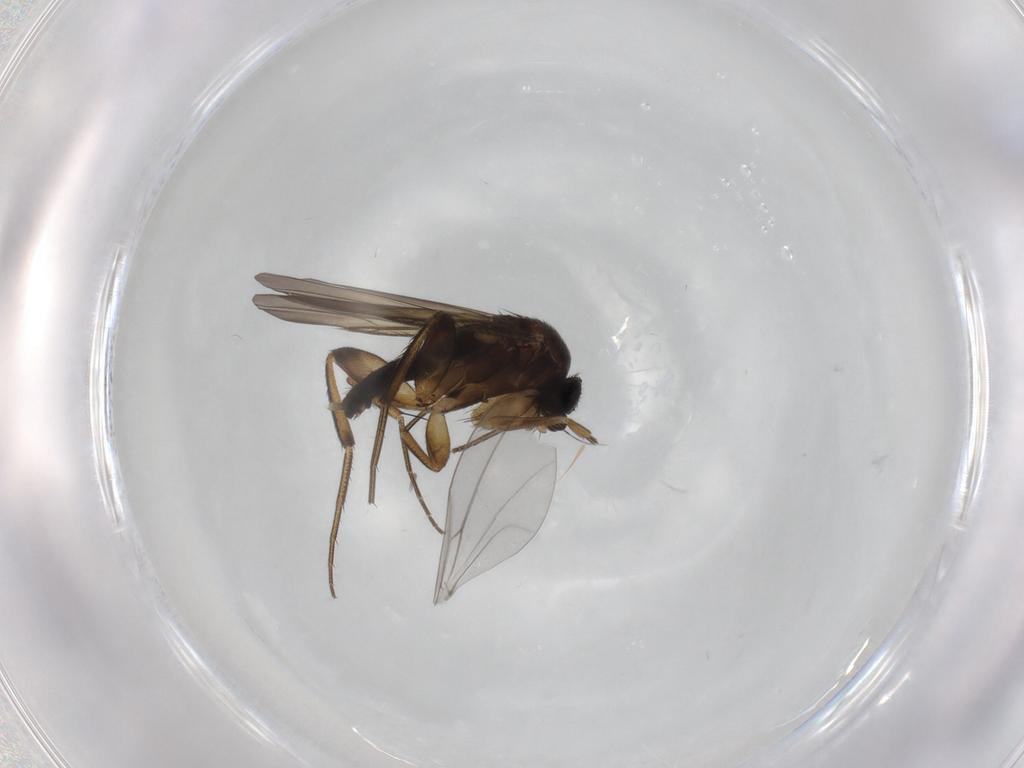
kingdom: Animalia
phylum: Arthropoda
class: Insecta
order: Diptera
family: Phoridae
